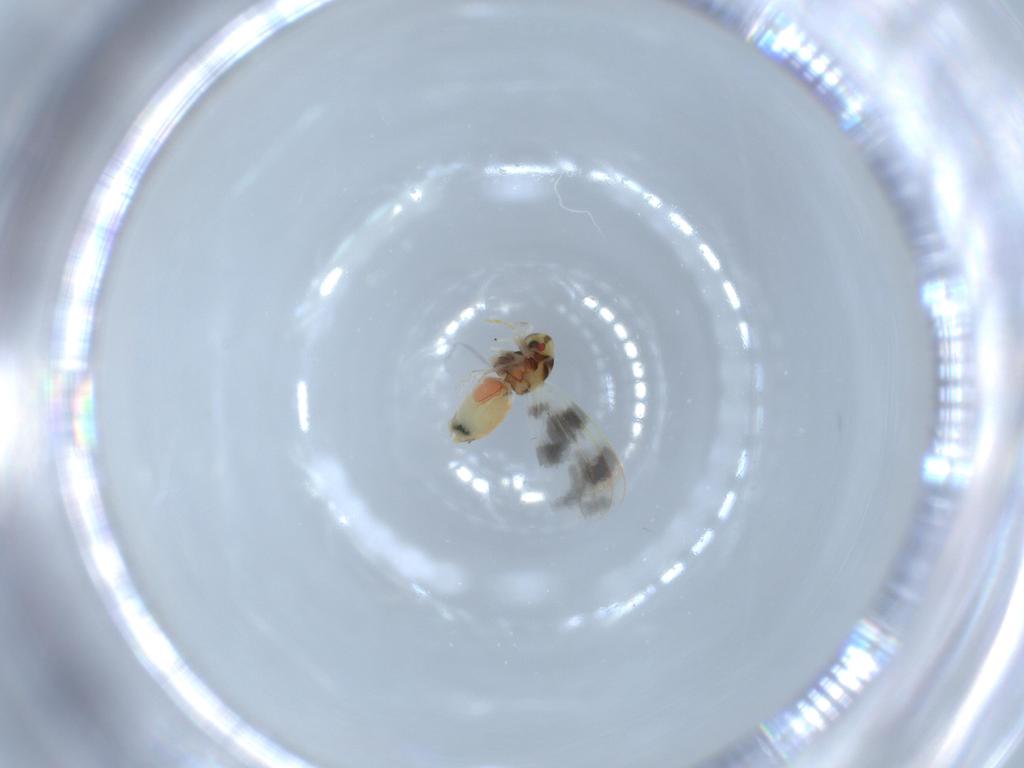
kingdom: Animalia
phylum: Arthropoda
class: Insecta
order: Hemiptera
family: Aleyrodidae
